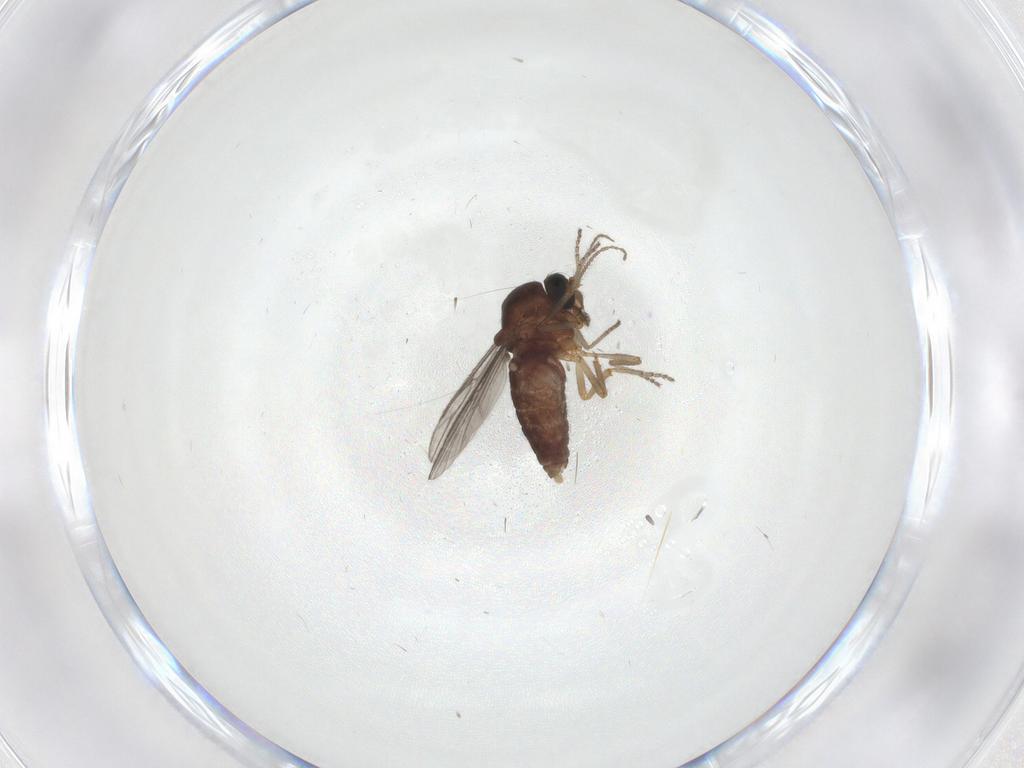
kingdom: Animalia
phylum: Arthropoda
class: Insecta
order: Diptera
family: Ceratopogonidae
